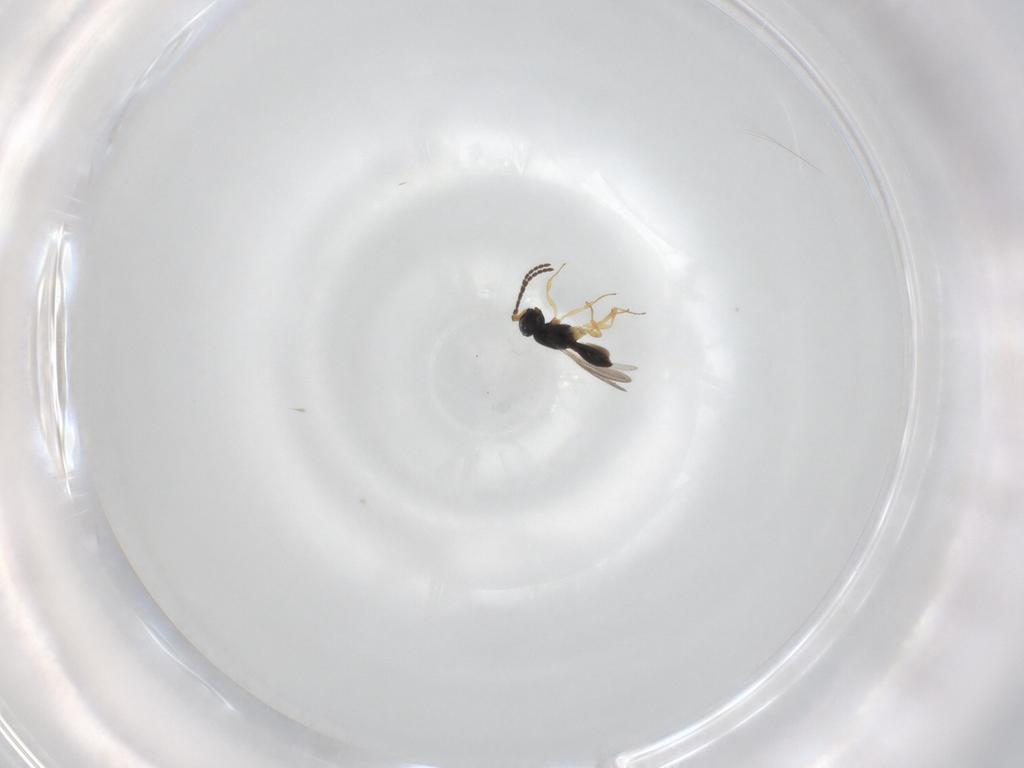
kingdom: Animalia
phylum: Arthropoda
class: Insecta
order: Hymenoptera
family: Scelionidae
